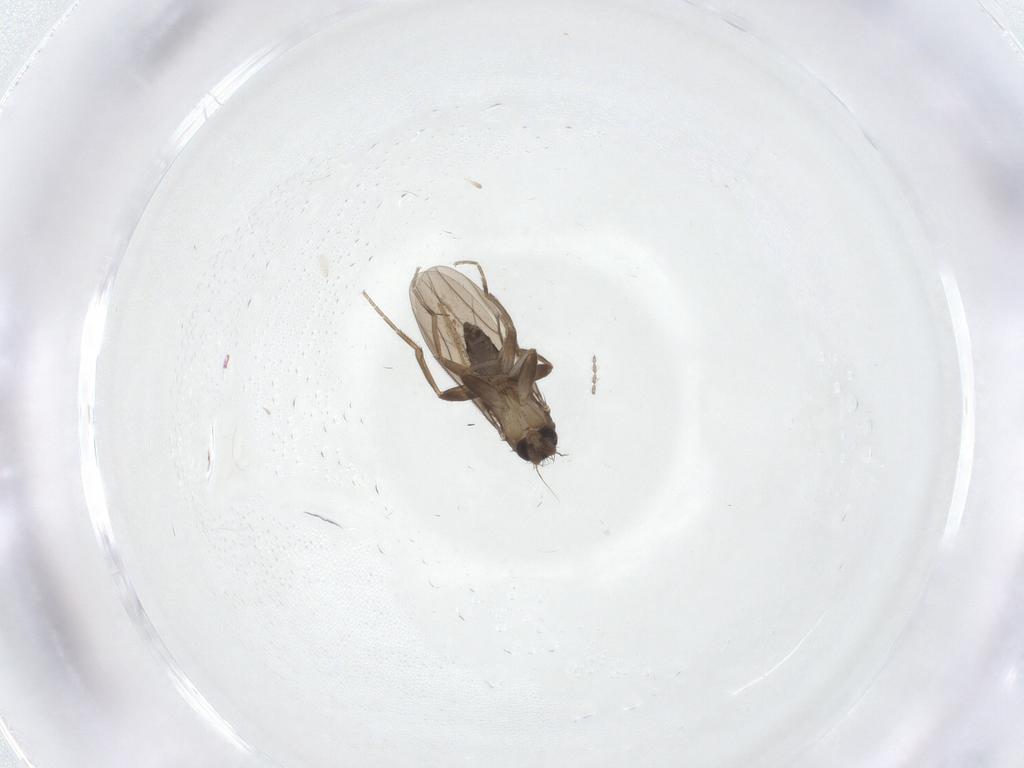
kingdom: Animalia
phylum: Arthropoda
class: Insecta
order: Diptera
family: Cecidomyiidae
